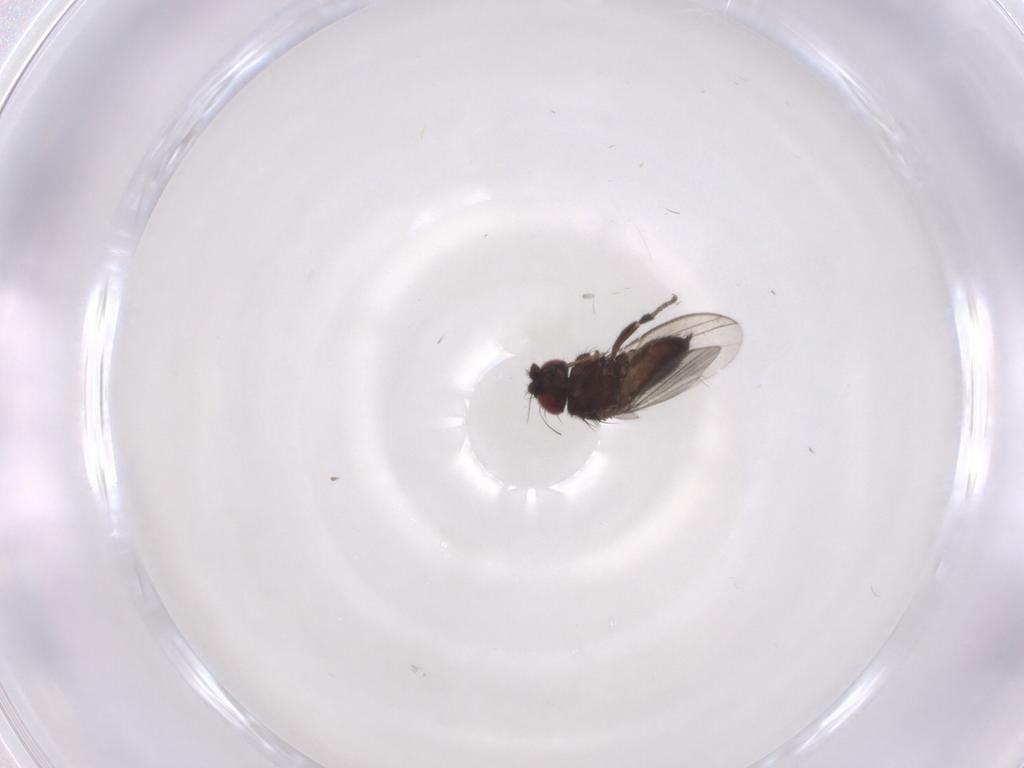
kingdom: Animalia
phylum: Arthropoda
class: Insecta
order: Diptera
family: Milichiidae
